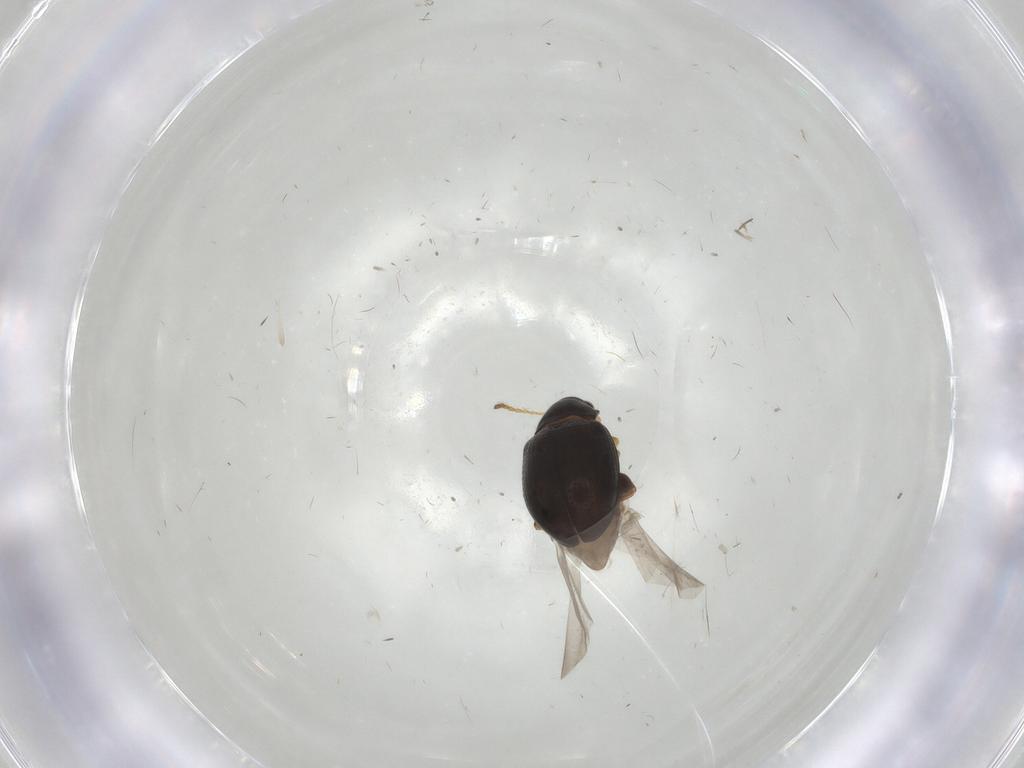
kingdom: Animalia
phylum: Arthropoda
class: Insecta
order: Coleoptera
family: Chrysomelidae
